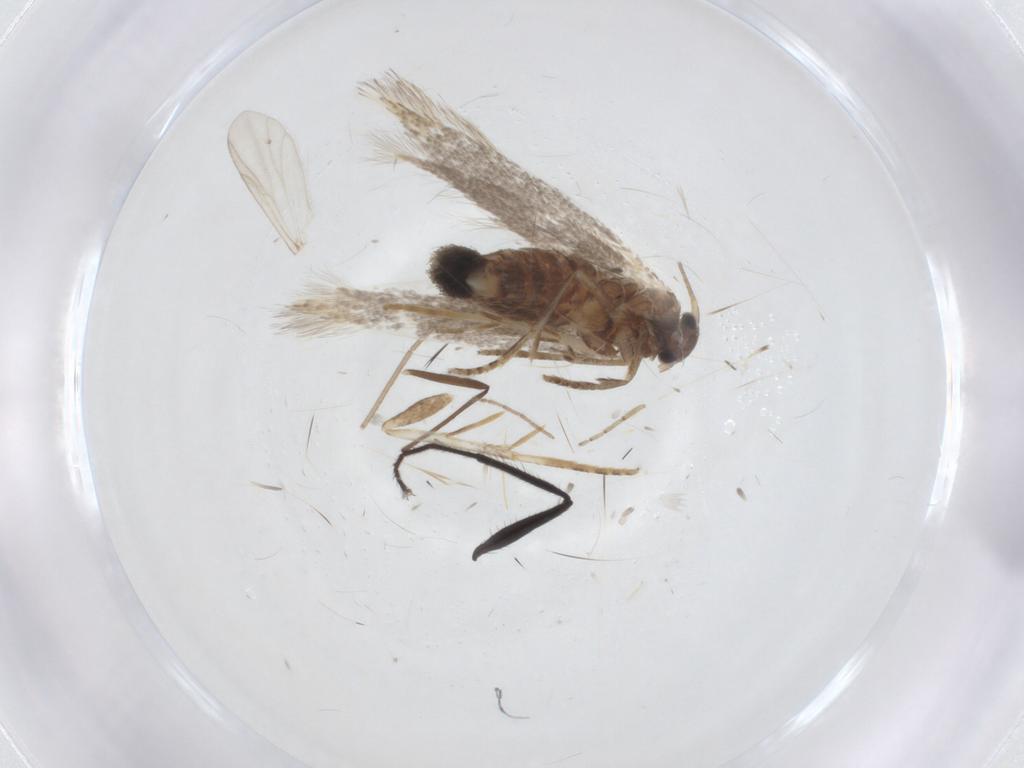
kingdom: Animalia
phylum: Arthropoda
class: Insecta
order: Lepidoptera
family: Elachistidae
